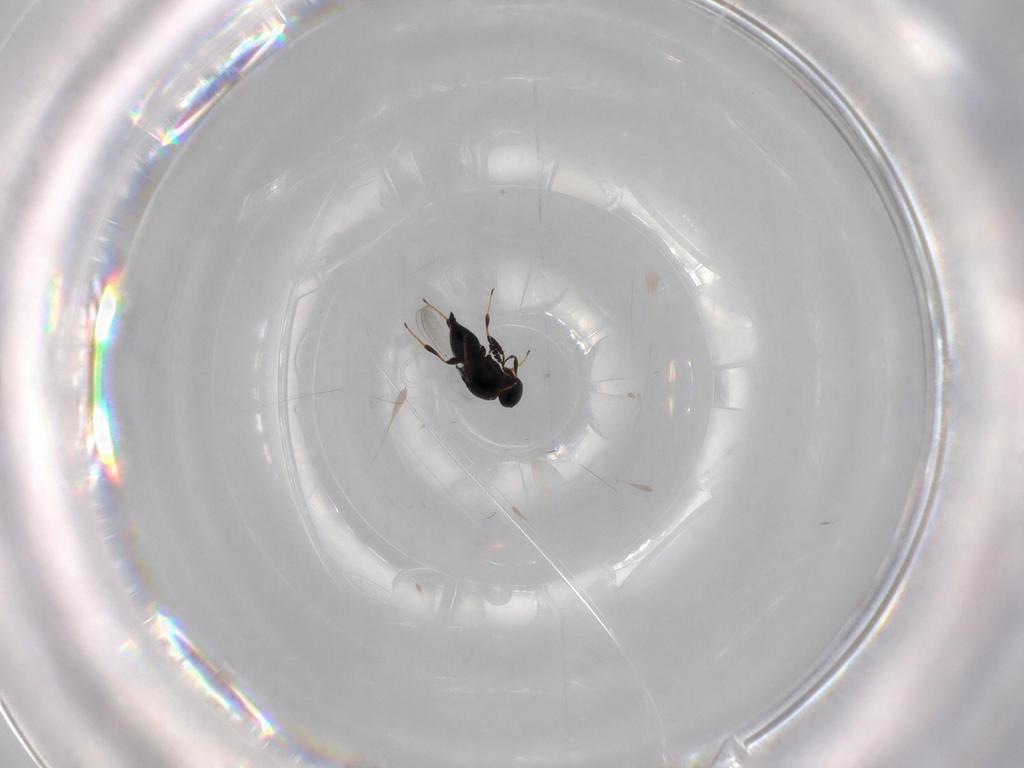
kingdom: Animalia
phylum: Arthropoda
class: Insecta
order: Hymenoptera
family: Platygastridae
